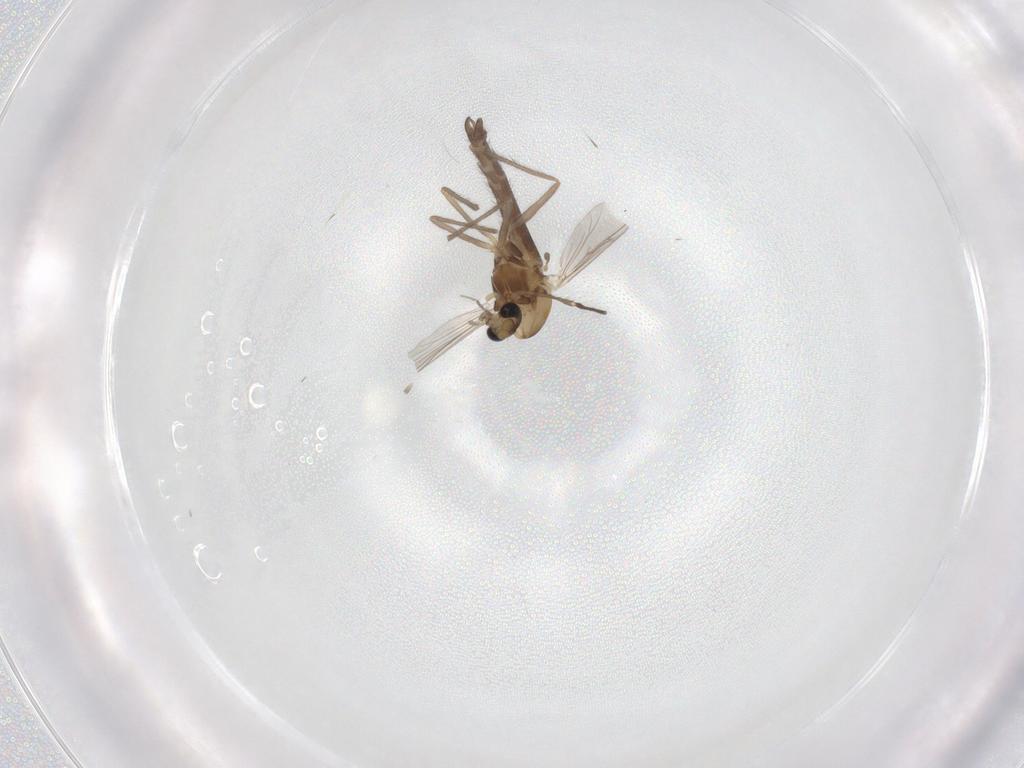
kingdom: Animalia
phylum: Arthropoda
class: Insecta
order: Diptera
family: Chironomidae
